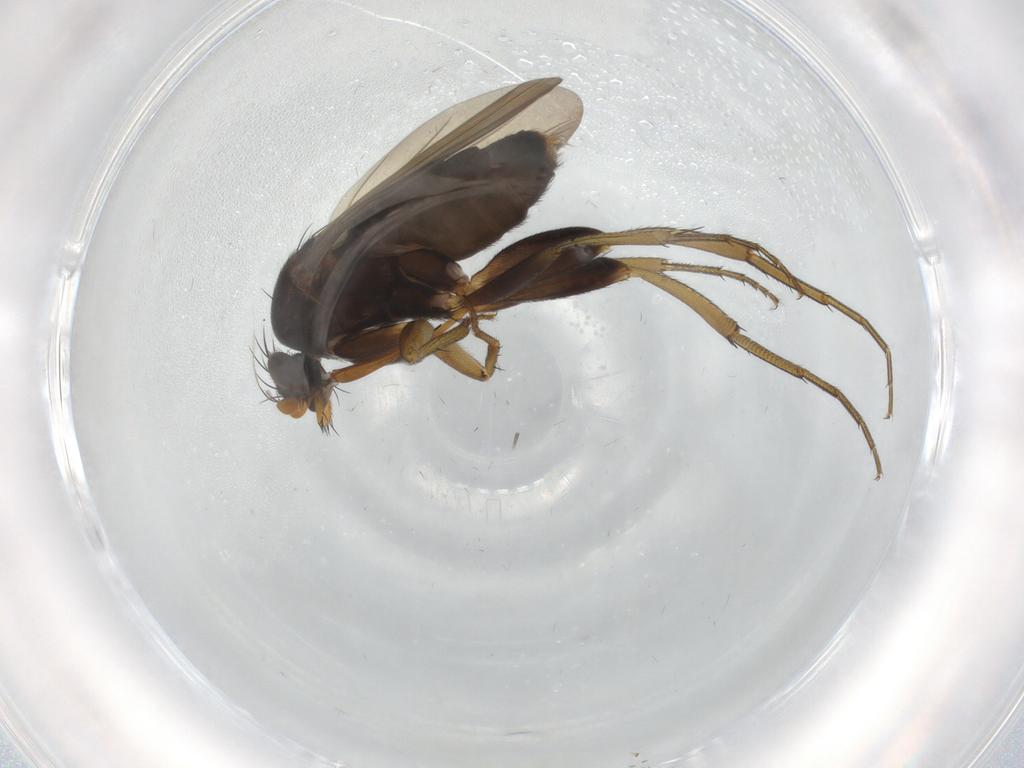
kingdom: Animalia
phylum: Arthropoda
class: Insecta
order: Diptera
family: Phoridae
